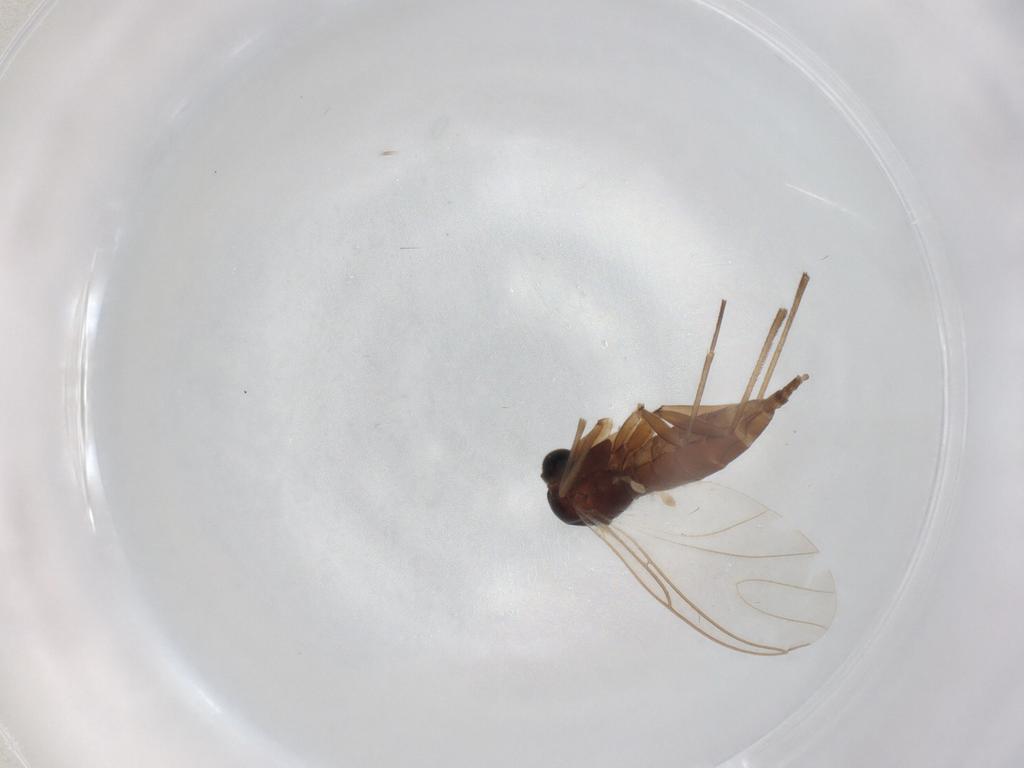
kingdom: Animalia
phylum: Arthropoda
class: Insecta
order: Diptera
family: Sciaridae
